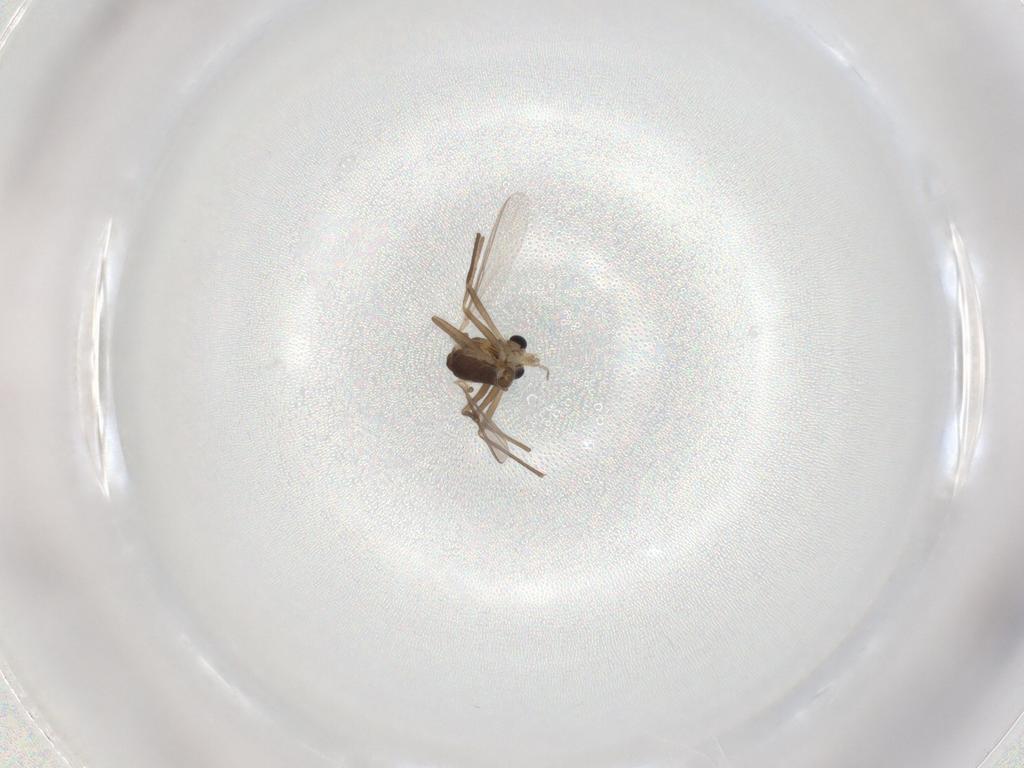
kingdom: Animalia
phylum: Arthropoda
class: Insecta
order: Diptera
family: Chironomidae
